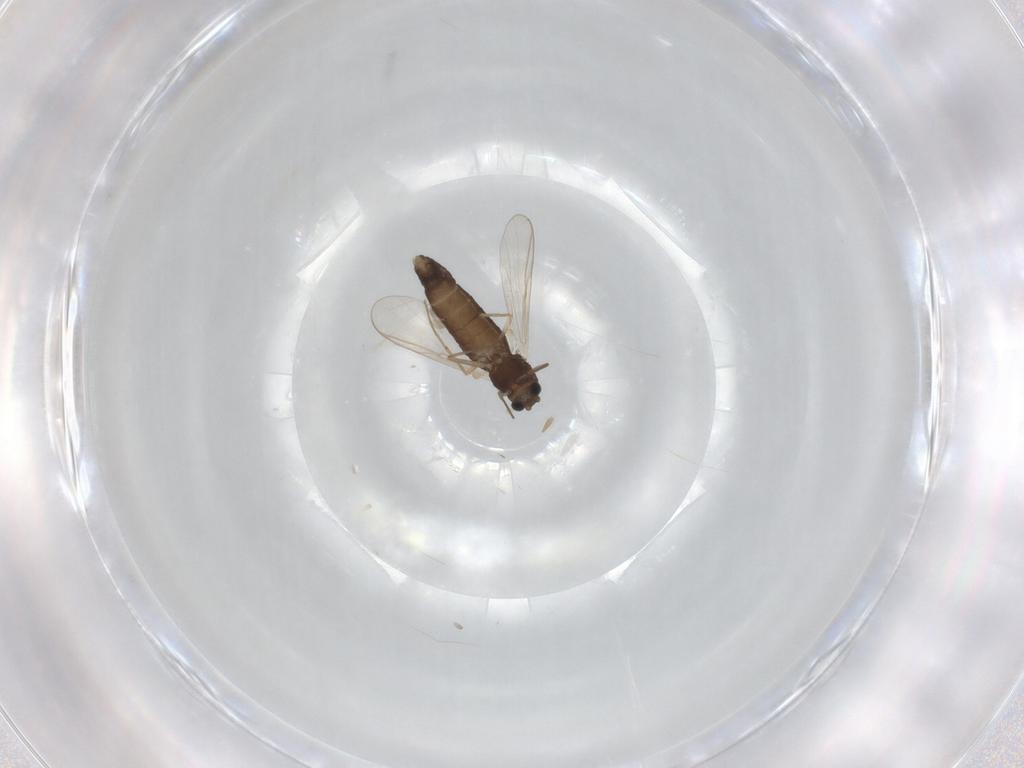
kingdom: Animalia
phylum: Arthropoda
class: Insecta
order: Diptera
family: Chironomidae
